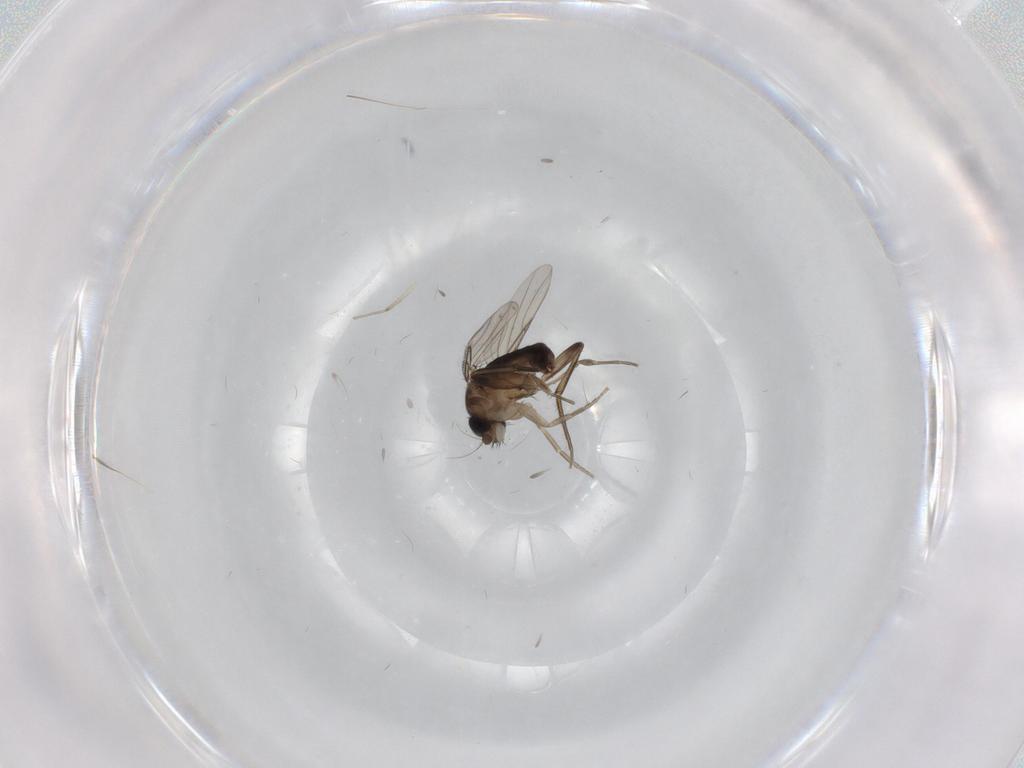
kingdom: Animalia
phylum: Arthropoda
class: Insecta
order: Diptera
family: Phoridae
